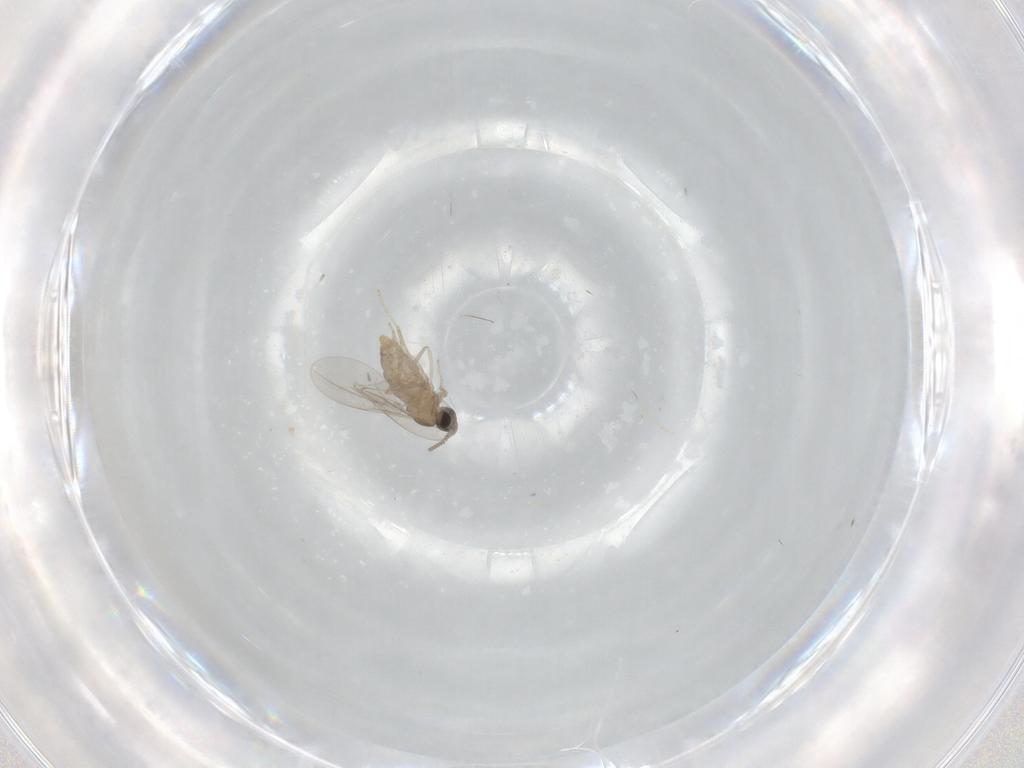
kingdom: Animalia
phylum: Arthropoda
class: Insecta
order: Diptera
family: Cecidomyiidae
